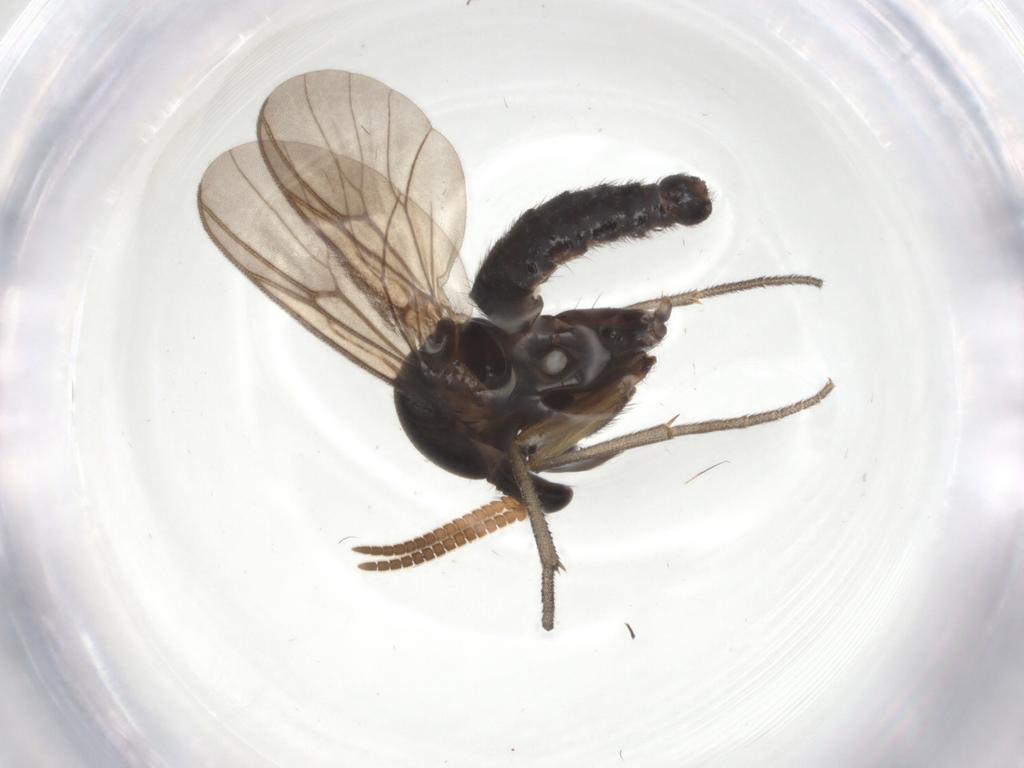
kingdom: Animalia
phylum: Arthropoda
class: Insecta
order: Diptera
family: Mycetophilidae
